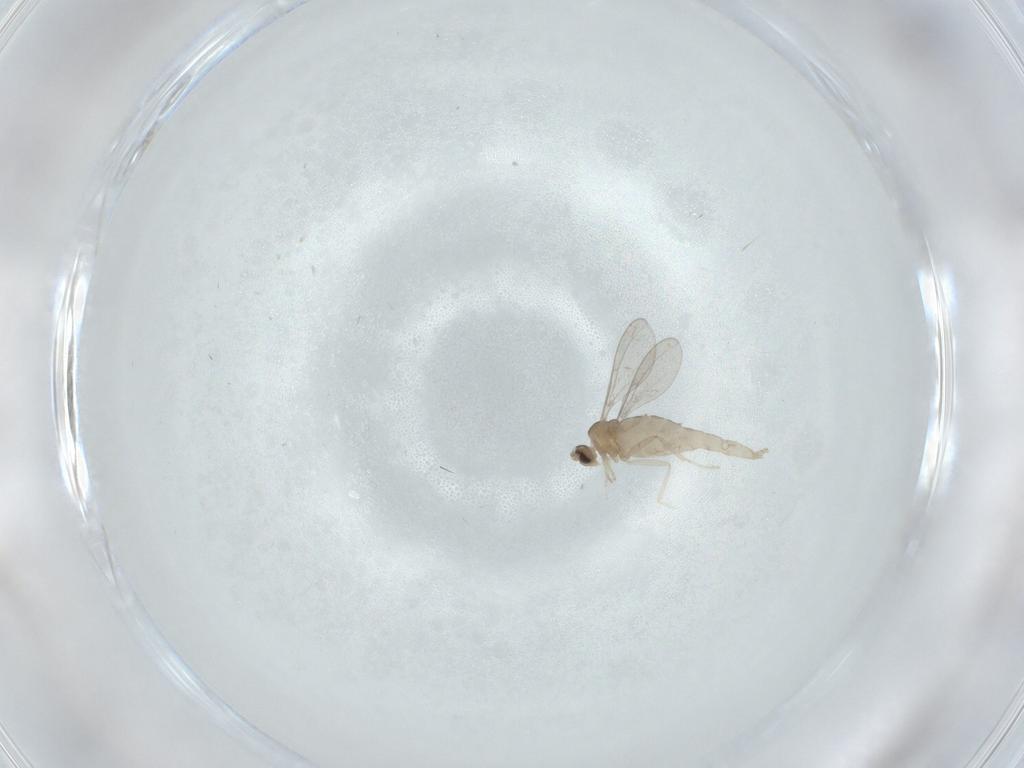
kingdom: Animalia
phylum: Arthropoda
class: Insecta
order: Diptera
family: Cecidomyiidae
